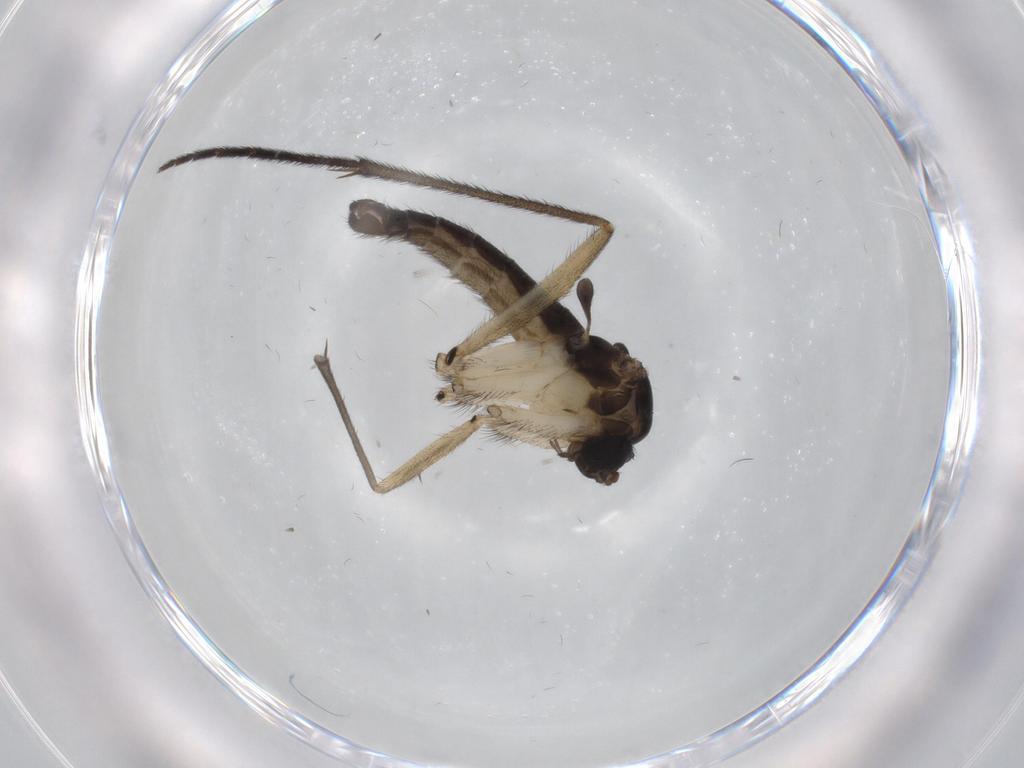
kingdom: Animalia
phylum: Arthropoda
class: Insecta
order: Diptera
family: Sciaridae
